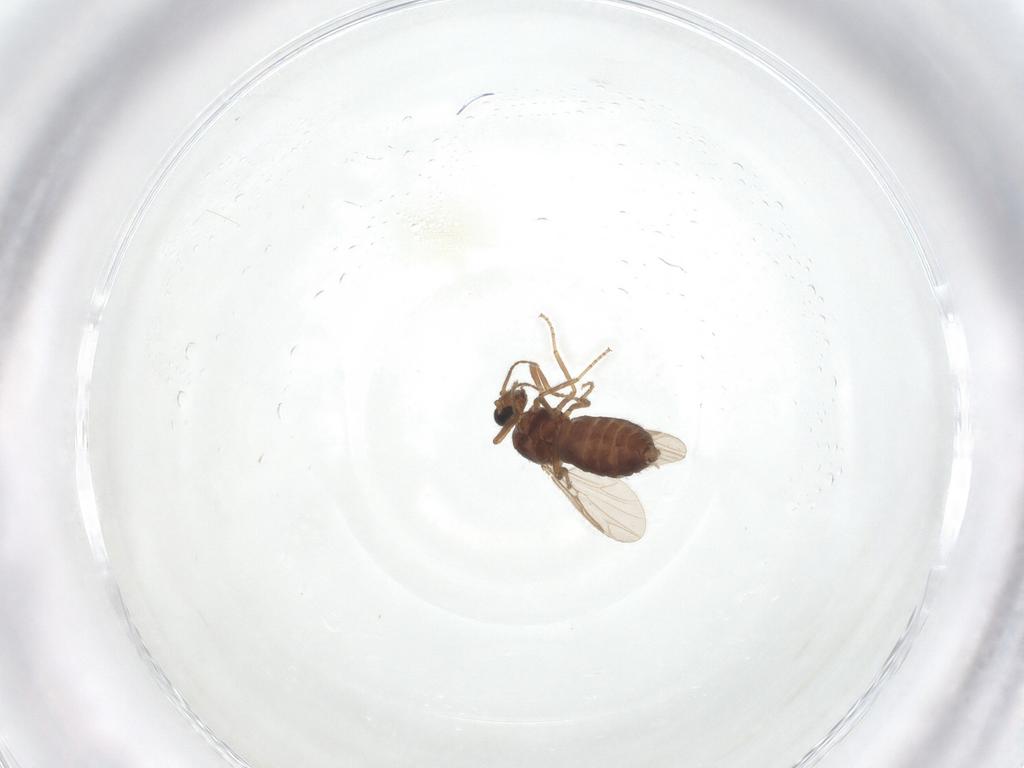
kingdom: Animalia
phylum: Arthropoda
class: Insecta
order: Diptera
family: Ceratopogonidae
